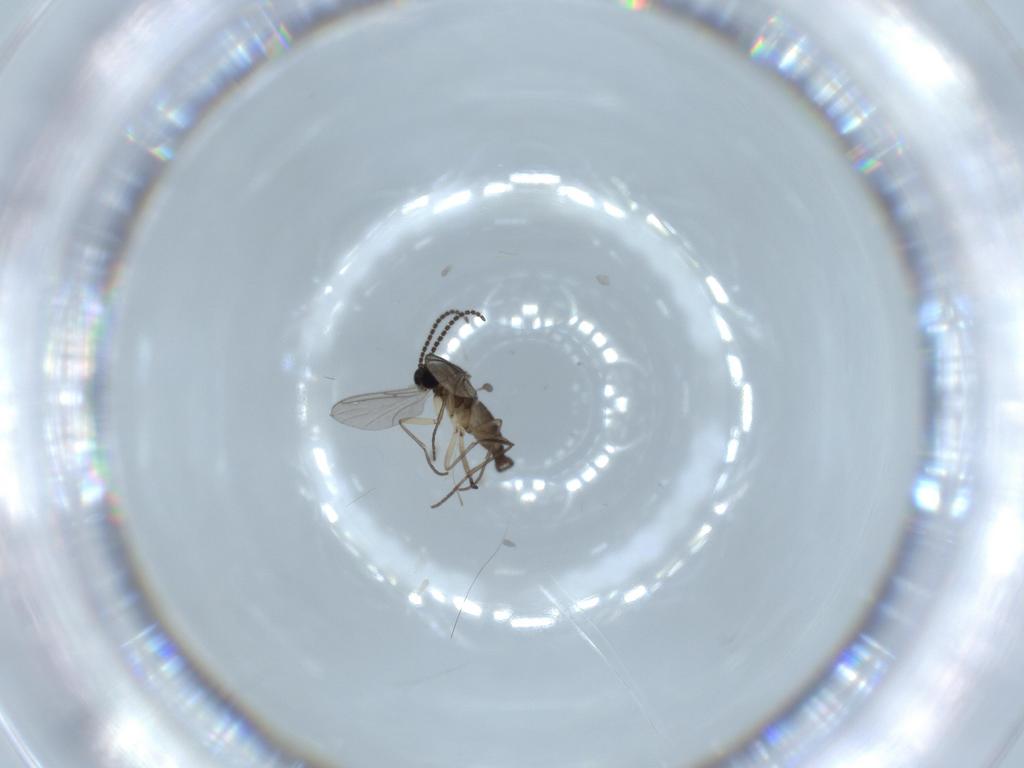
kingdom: Animalia
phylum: Arthropoda
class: Insecta
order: Diptera
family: Sciaridae
